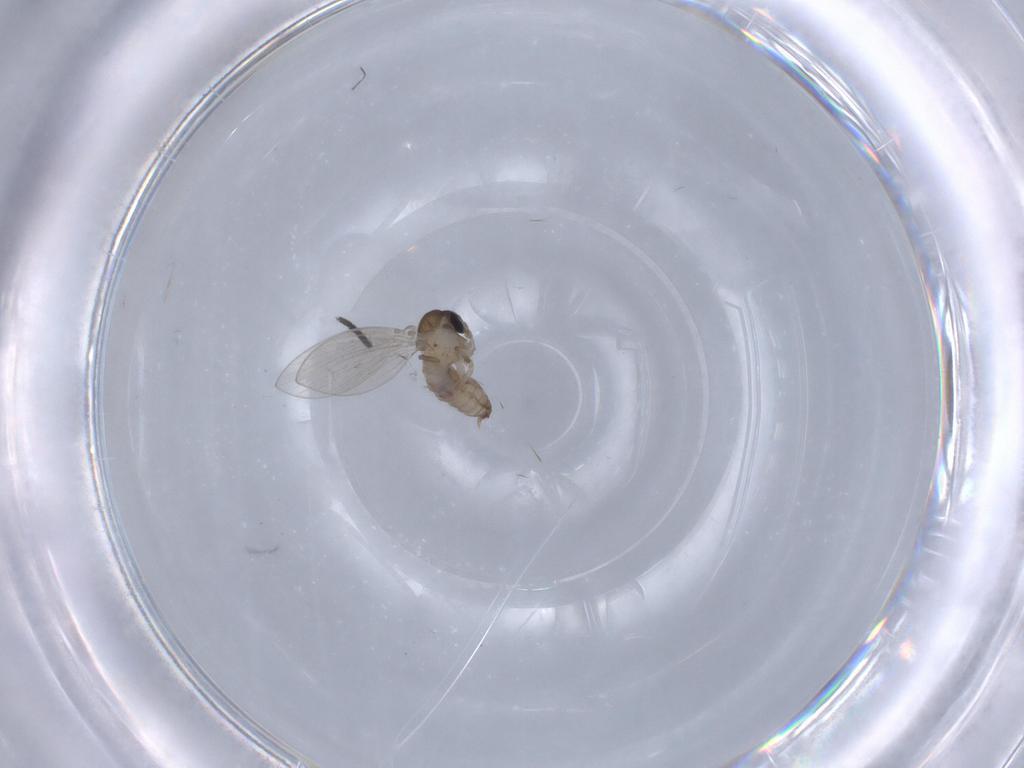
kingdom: Animalia
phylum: Arthropoda
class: Insecta
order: Diptera
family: Sciaridae
